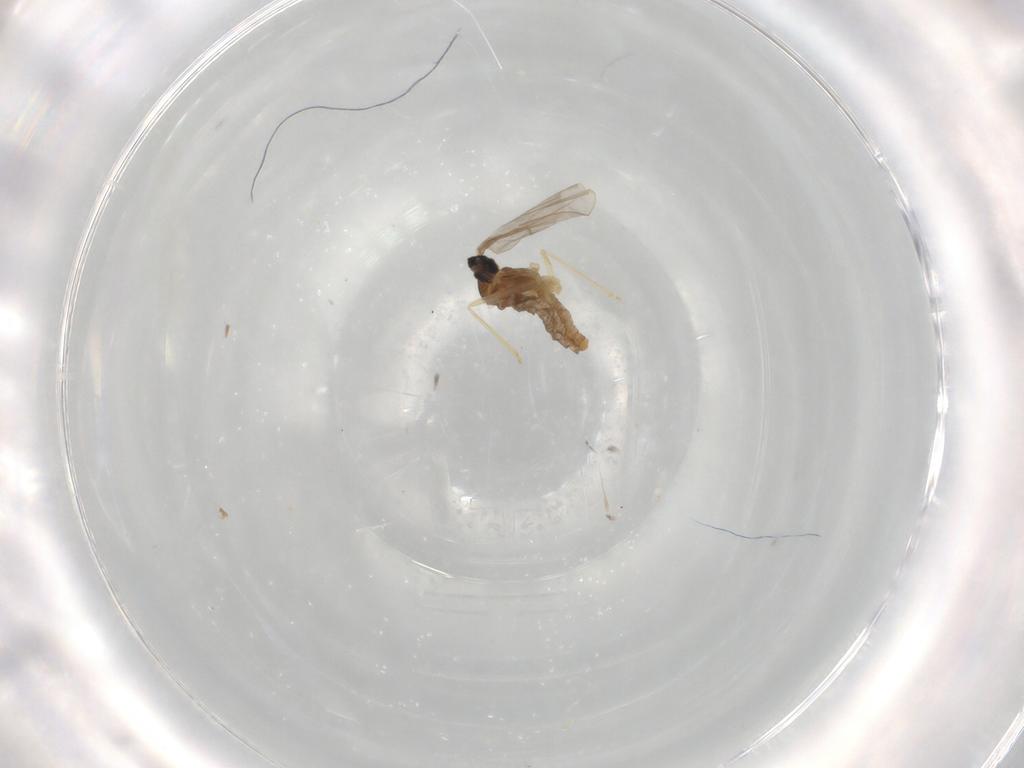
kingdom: Animalia
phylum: Arthropoda
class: Insecta
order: Diptera
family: Cecidomyiidae
